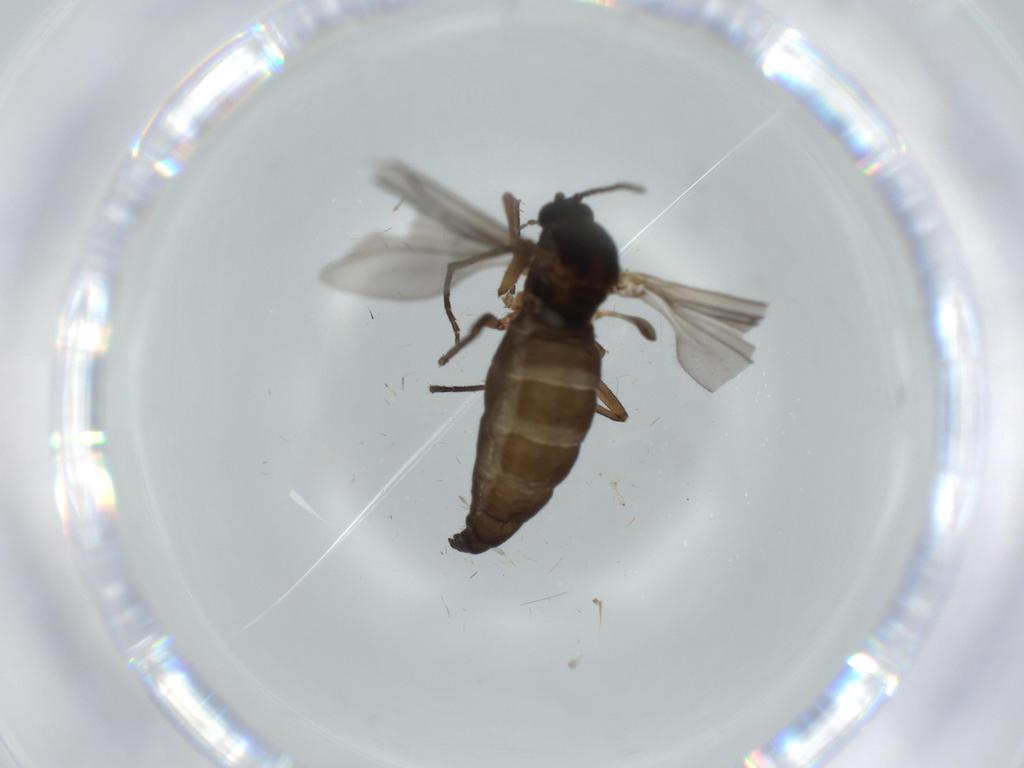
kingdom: Animalia
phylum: Arthropoda
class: Insecta
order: Diptera
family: Sciaridae
